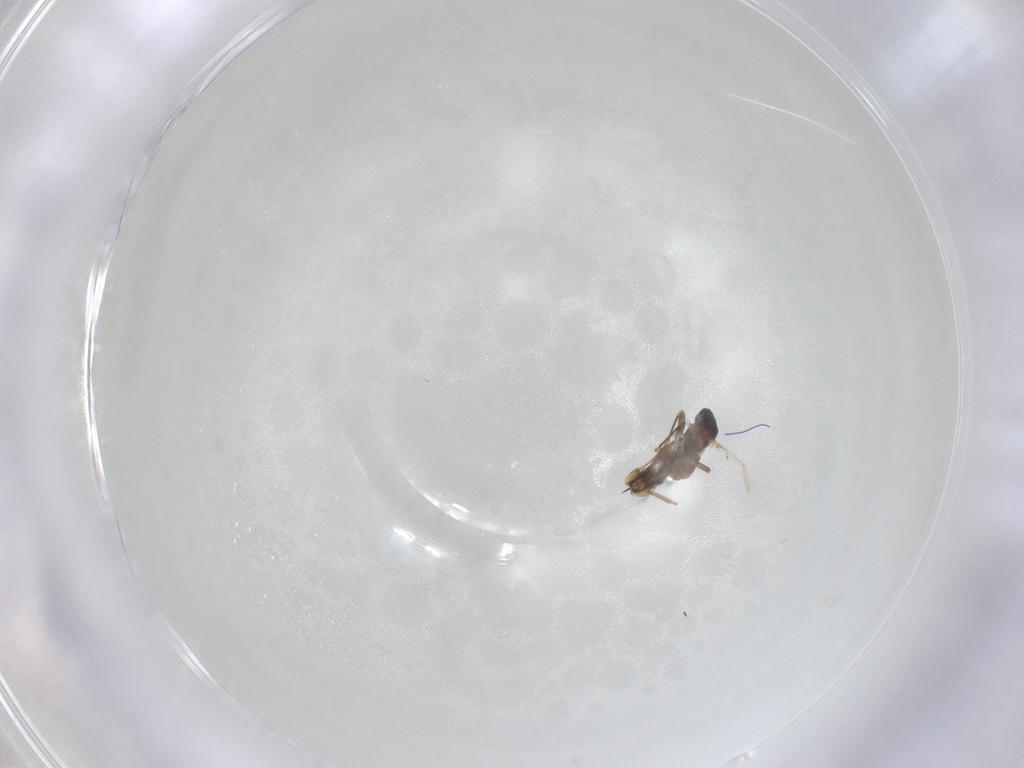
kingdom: Animalia
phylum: Arthropoda
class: Insecta
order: Diptera
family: Cecidomyiidae
